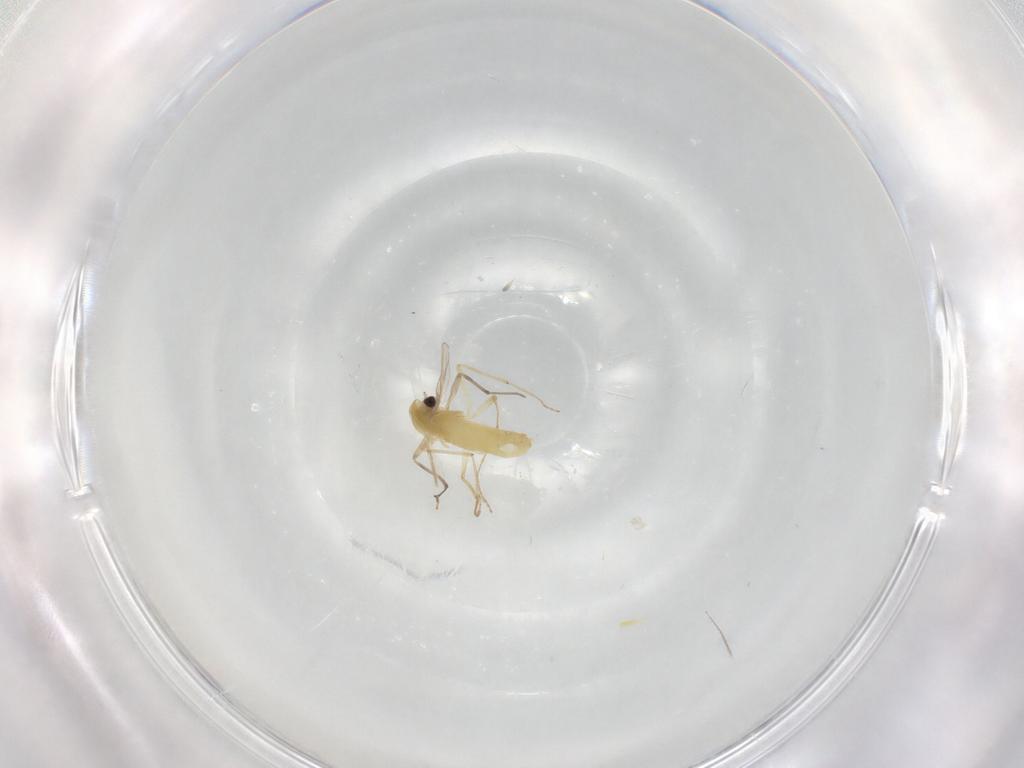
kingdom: Animalia
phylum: Arthropoda
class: Insecta
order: Diptera
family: Chironomidae
